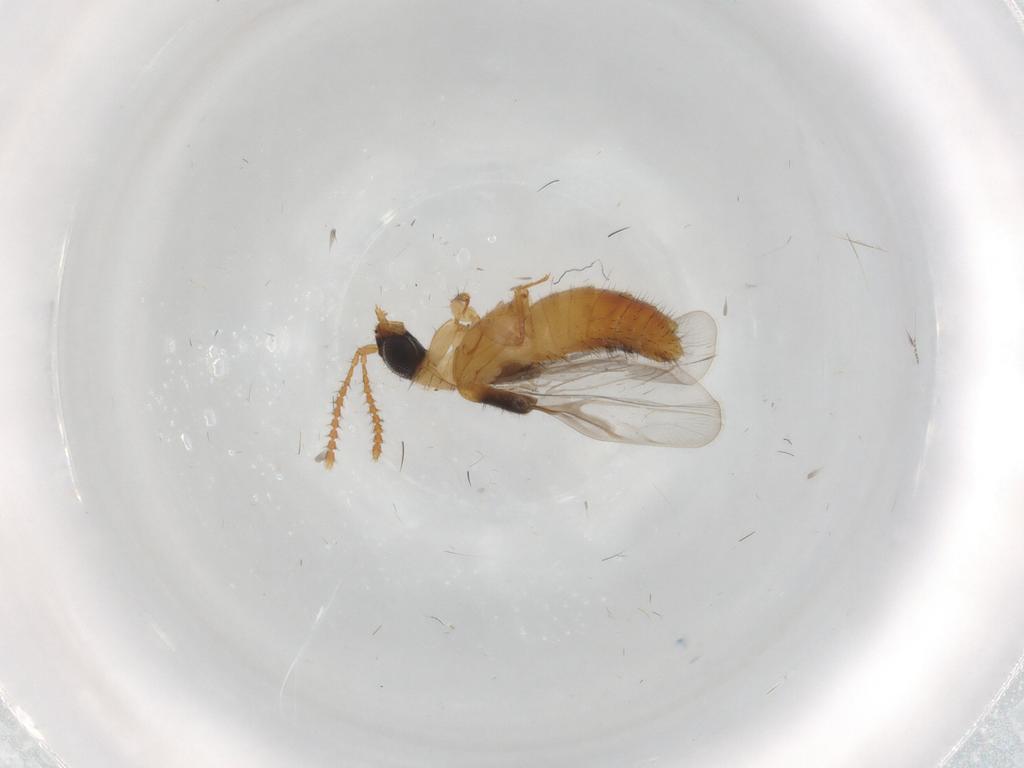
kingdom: Animalia
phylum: Arthropoda
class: Insecta
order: Coleoptera
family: Staphylinidae
